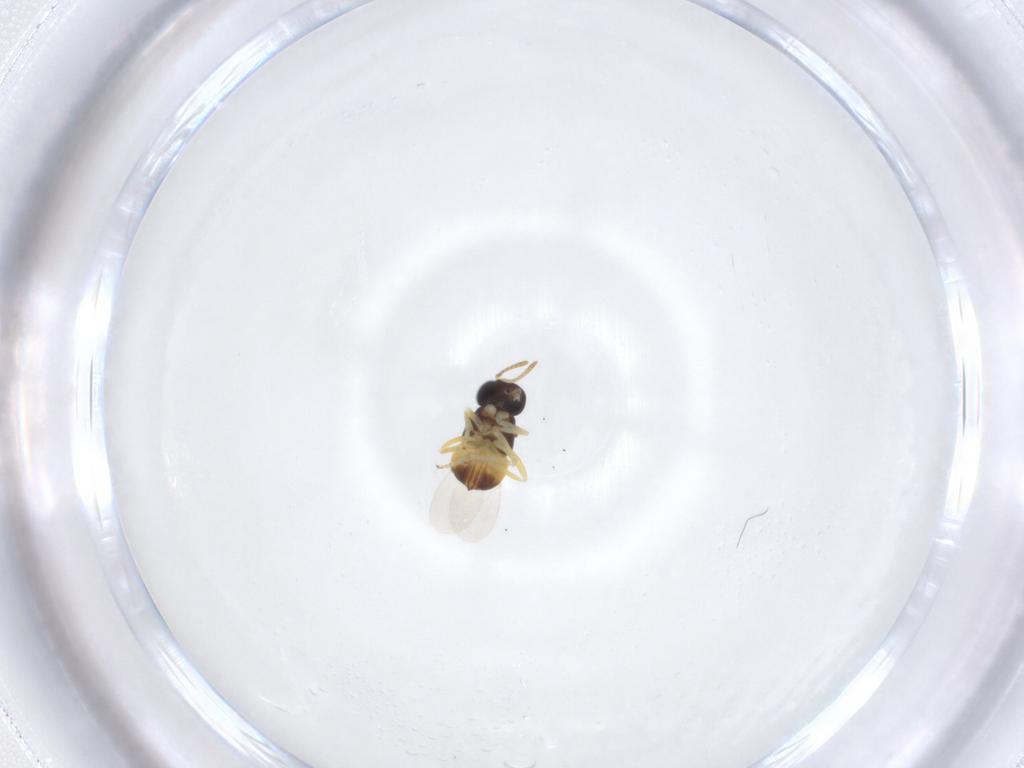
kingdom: Animalia
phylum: Arthropoda
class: Insecta
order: Hymenoptera
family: Encyrtidae
